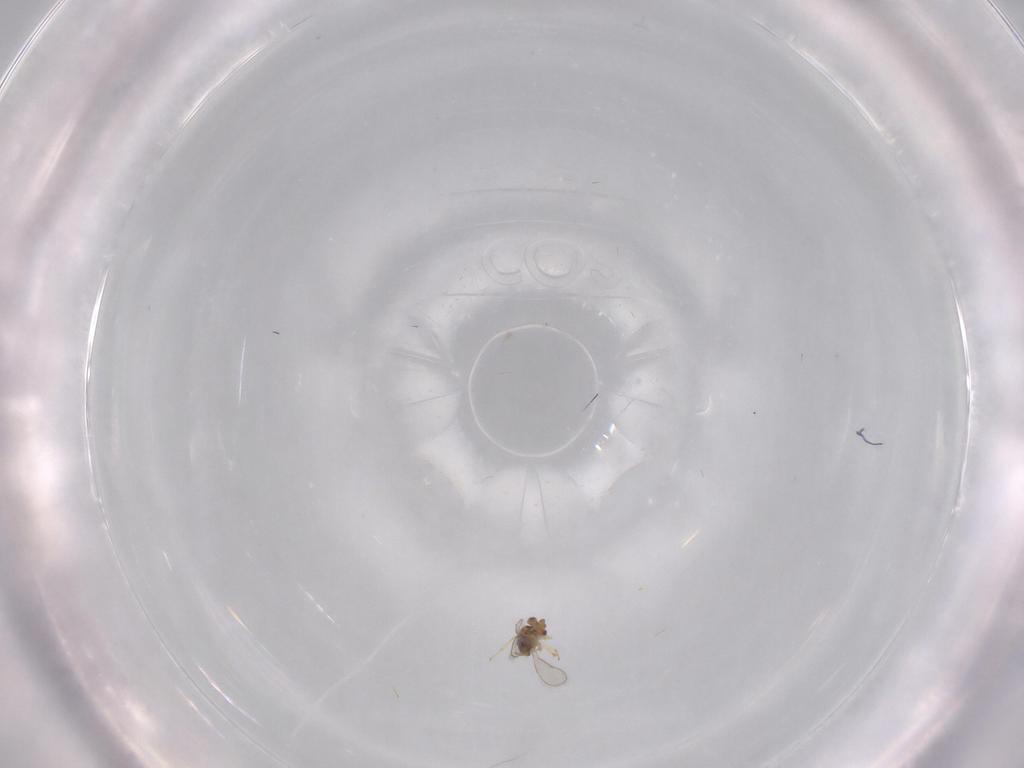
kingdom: Animalia
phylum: Arthropoda
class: Insecta
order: Hymenoptera
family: Aphelinidae
